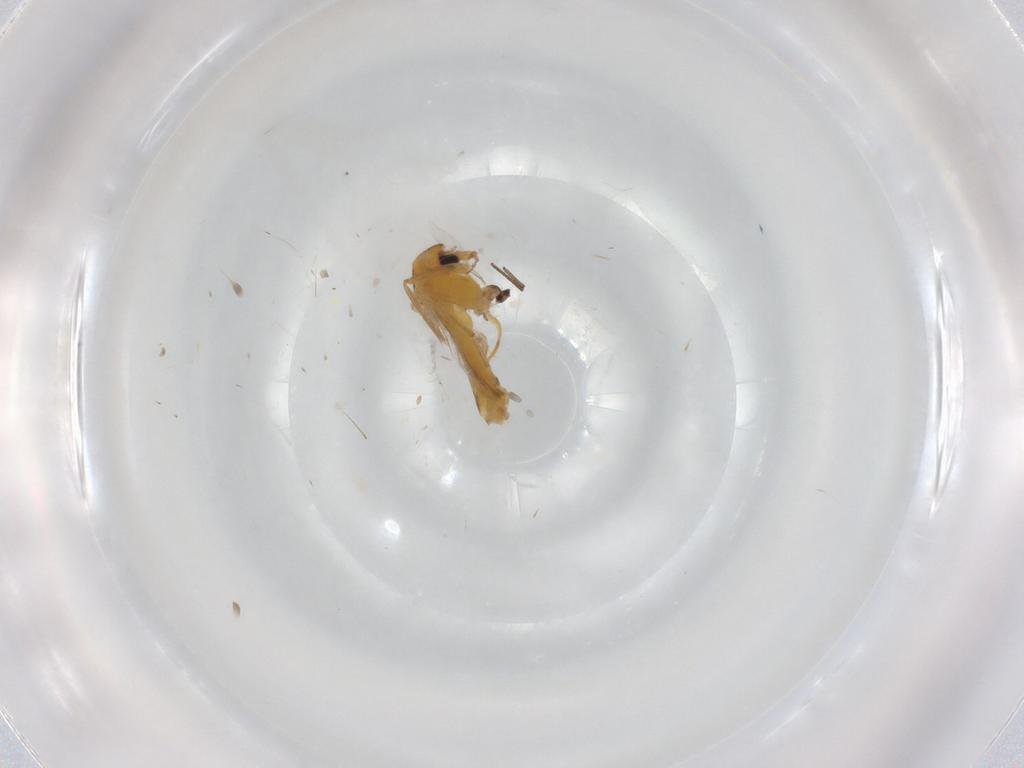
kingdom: Animalia
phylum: Arthropoda
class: Insecta
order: Diptera
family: Chironomidae
